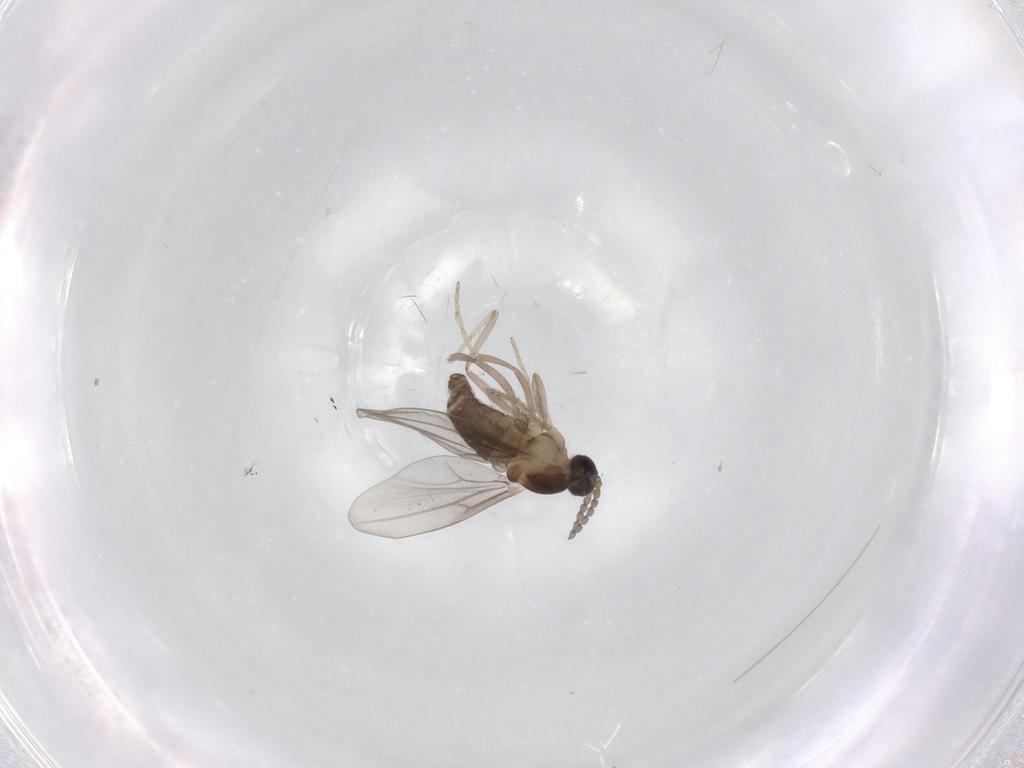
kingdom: Animalia
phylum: Arthropoda
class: Insecta
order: Diptera
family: Cecidomyiidae
